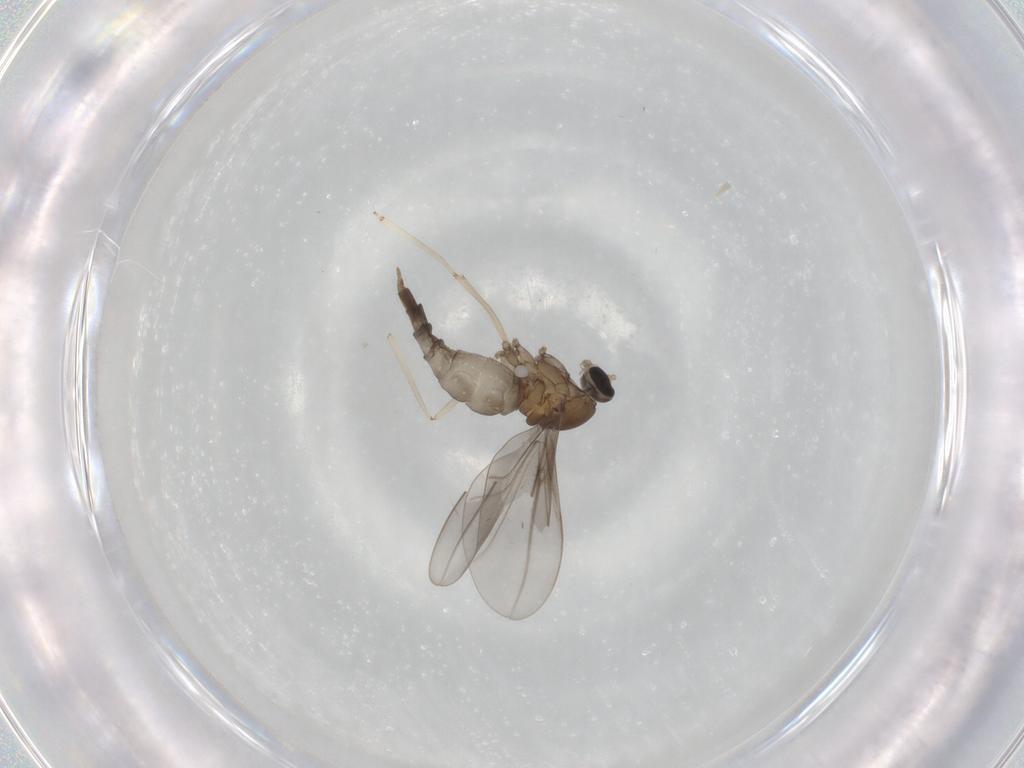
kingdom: Animalia
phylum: Arthropoda
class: Insecta
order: Diptera
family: Cecidomyiidae
